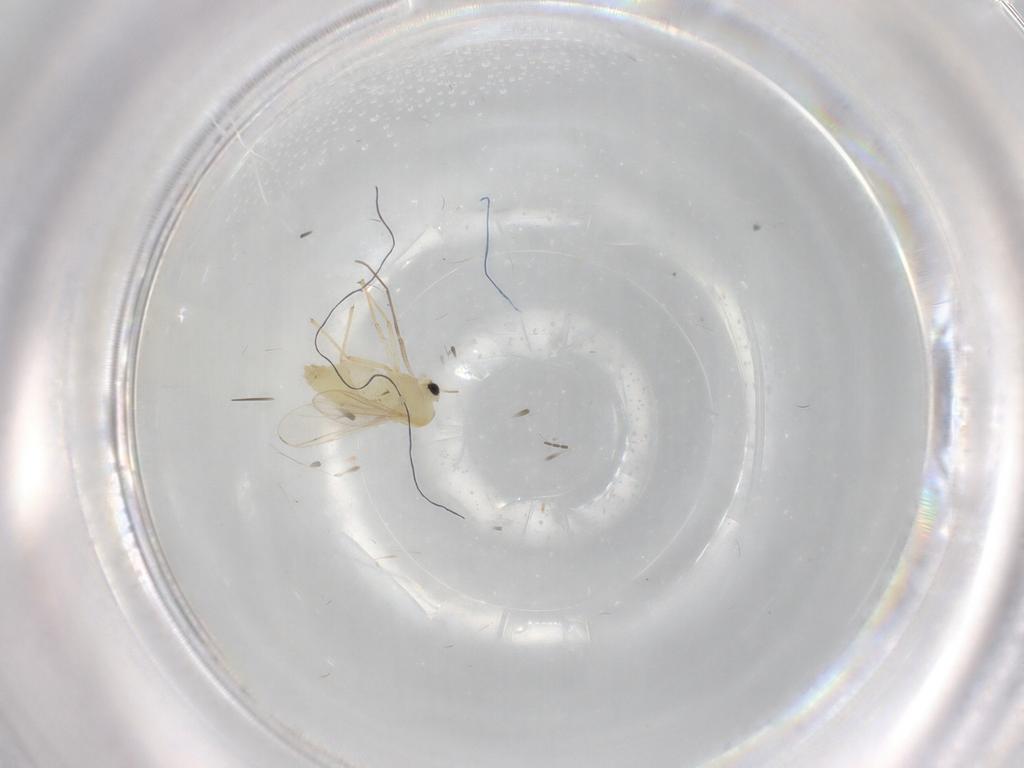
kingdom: Animalia
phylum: Arthropoda
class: Insecta
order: Diptera
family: Chironomidae
